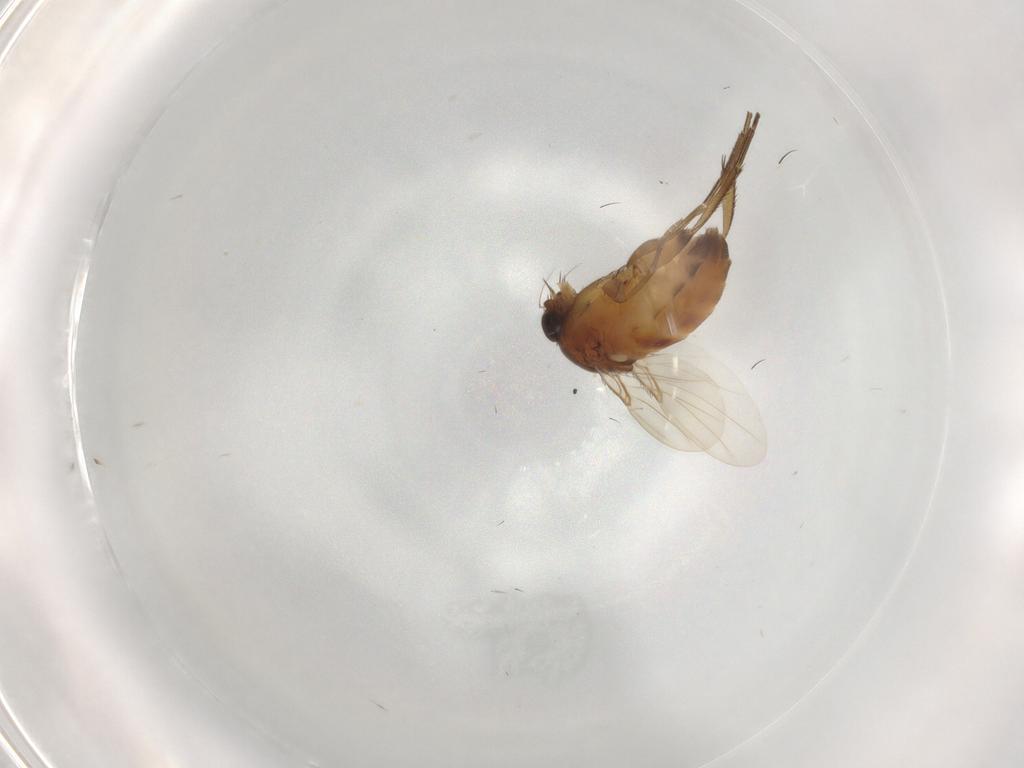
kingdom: Animalia
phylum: Arthropoda
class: Insecta
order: Diptera
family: Phoridae
